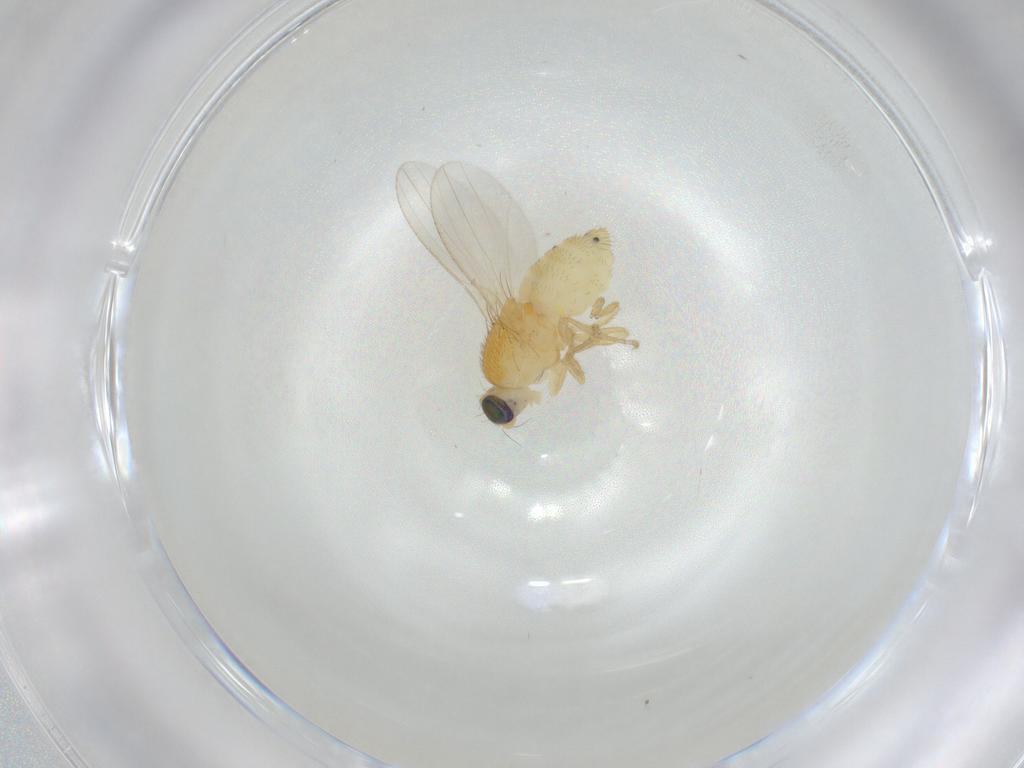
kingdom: Animalia
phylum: Arthropoda
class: Insecta
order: Diptera
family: Chyromyidae
